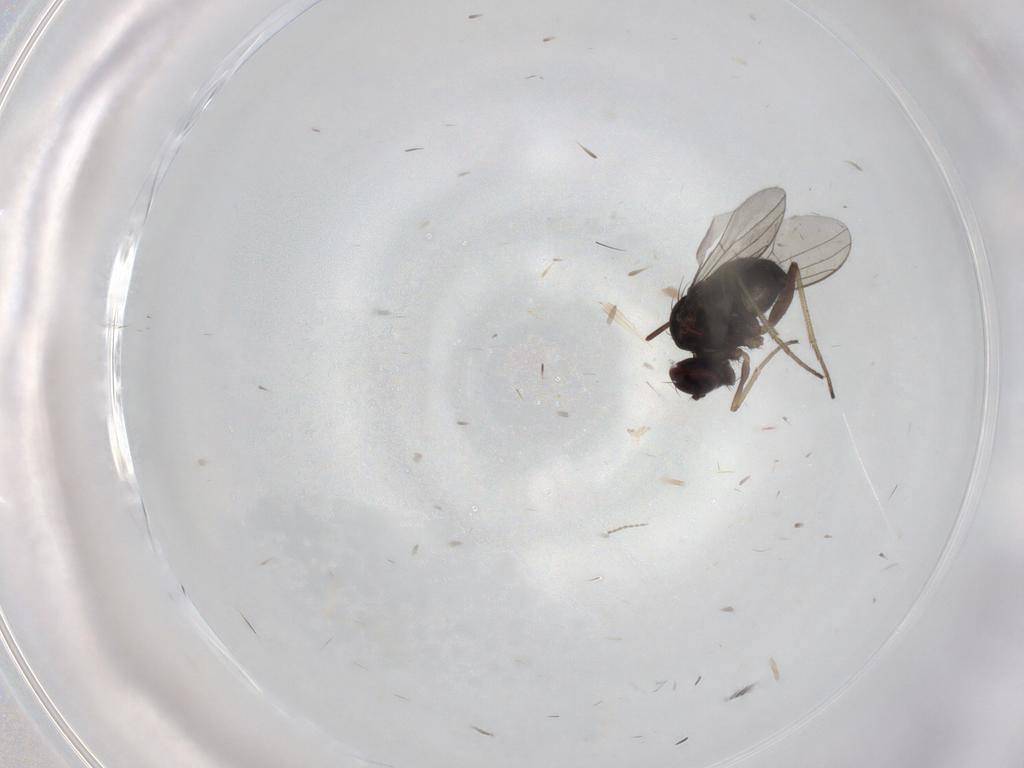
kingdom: Animalia
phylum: Arthropoda
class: Insecta
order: Diptera
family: Dolichopodidae
